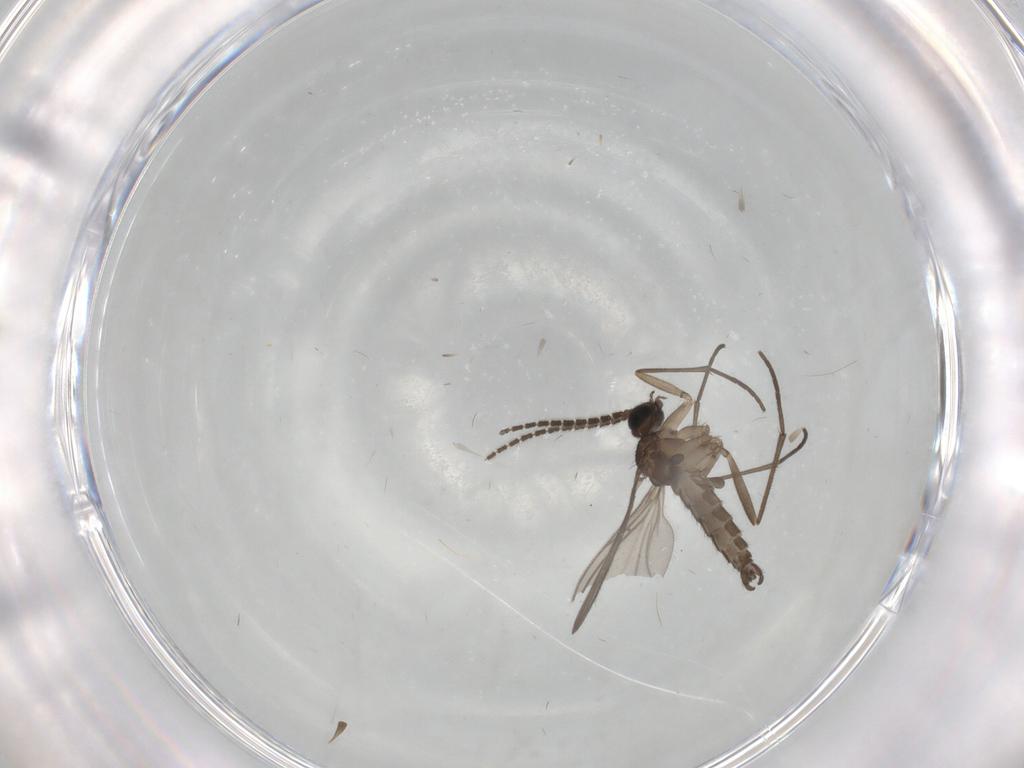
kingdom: Animalia
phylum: Arthropoda
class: Insecta
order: Diptera
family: Sciaridae
